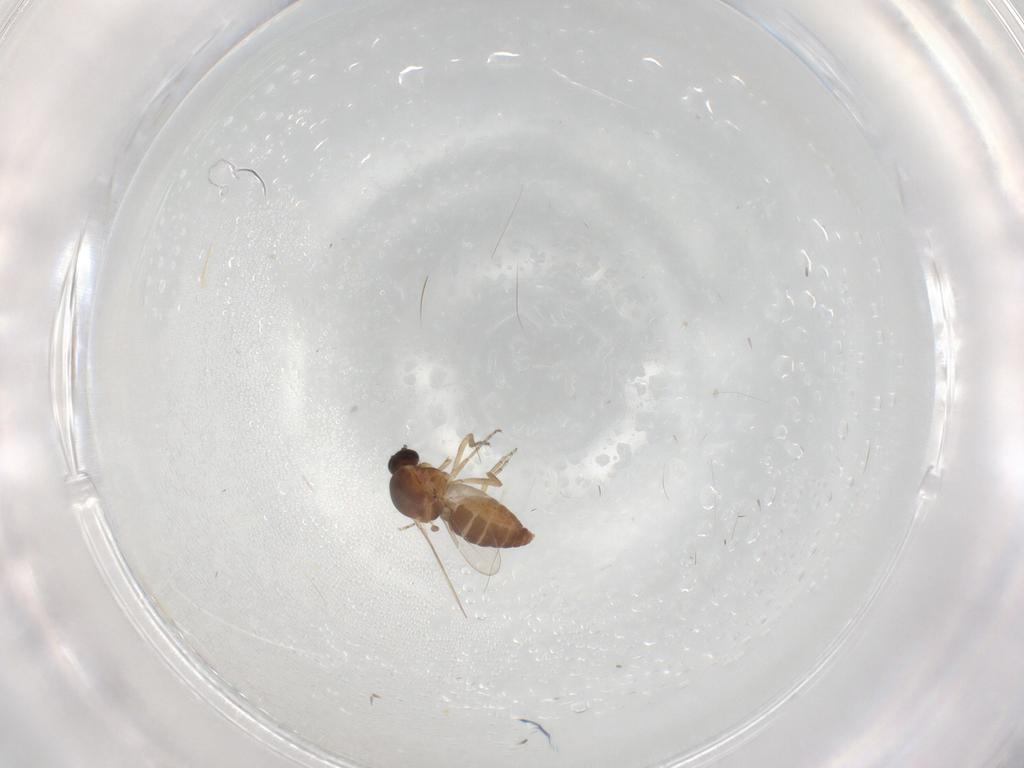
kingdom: Animalia
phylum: Arthropoda
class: Insecta
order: Diptera
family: Ceratopogonidae
